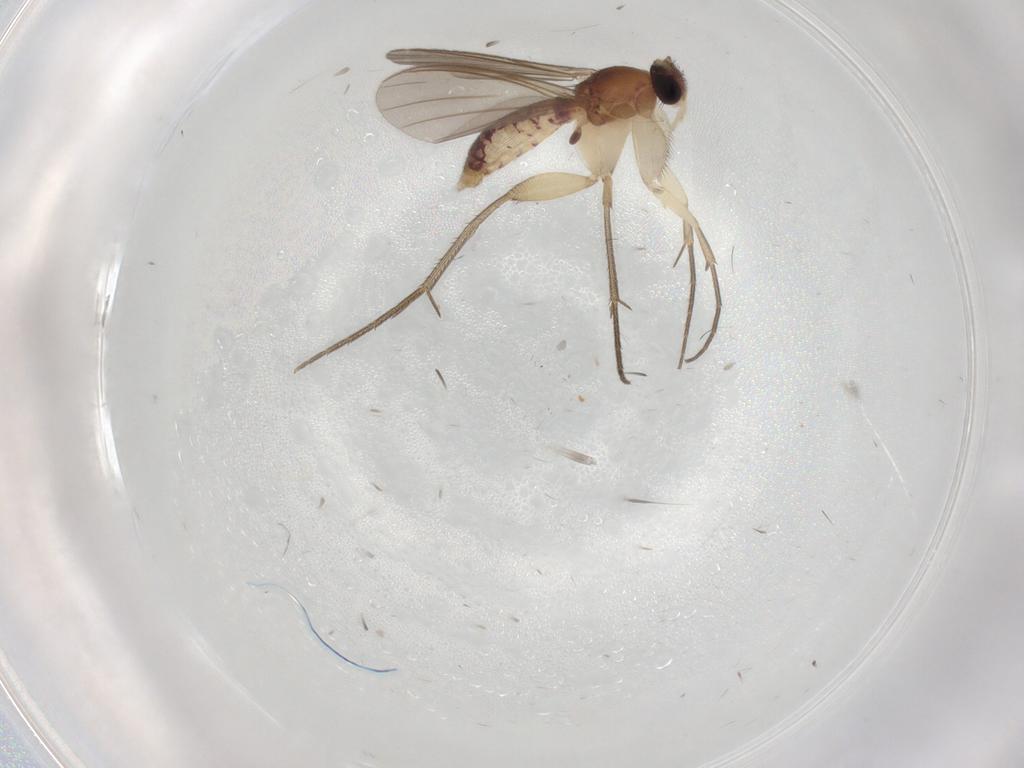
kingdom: Animalia
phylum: Arthropoda
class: Insecta
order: Diptera
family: Mycetophilidae
